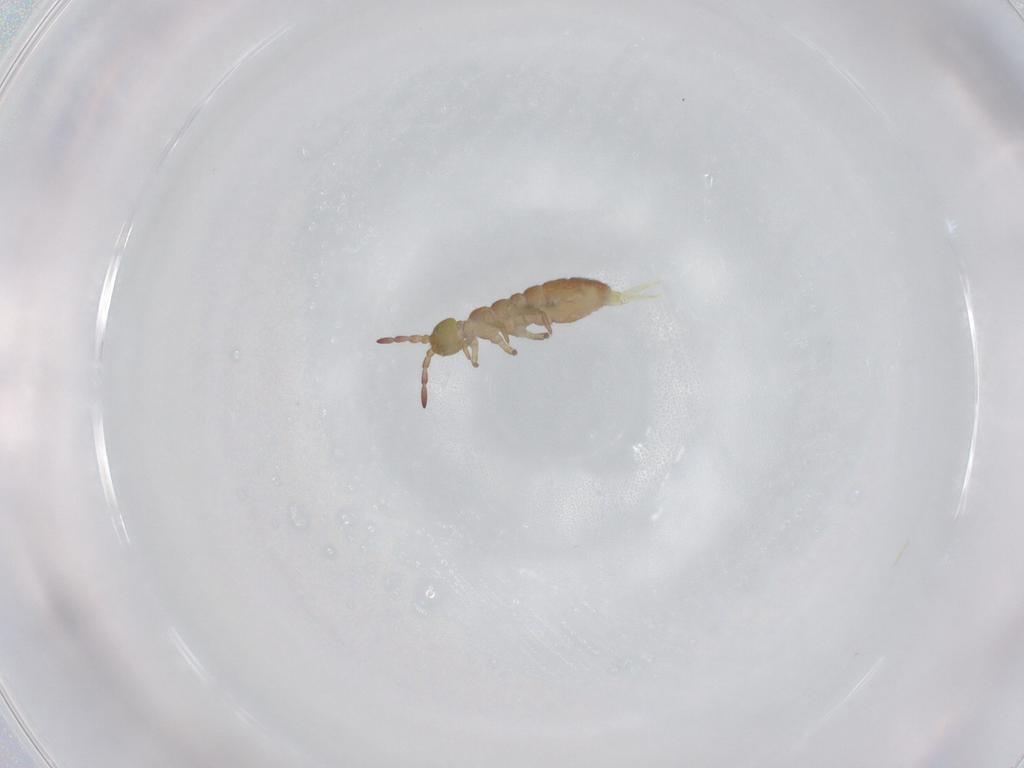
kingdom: Animalia
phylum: Arthropoda
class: Collembola
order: Entomobryomorpha
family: Isotomidae
